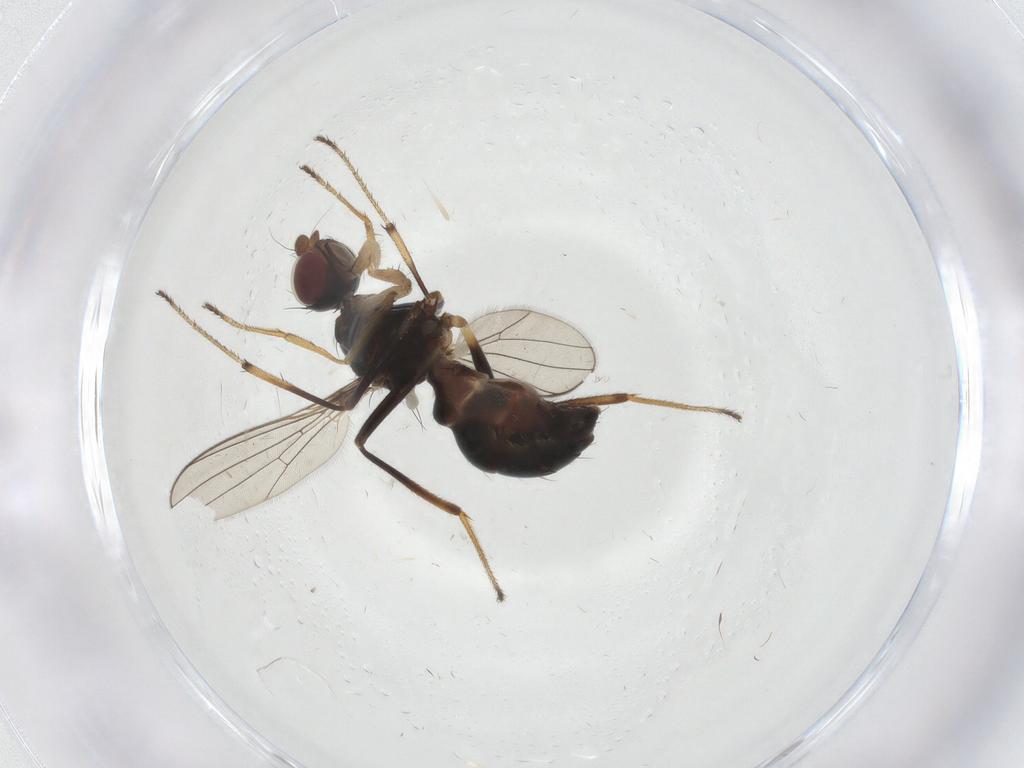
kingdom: Animalia
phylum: Arthropoda
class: Insecta
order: Diptera
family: Sepsidae
